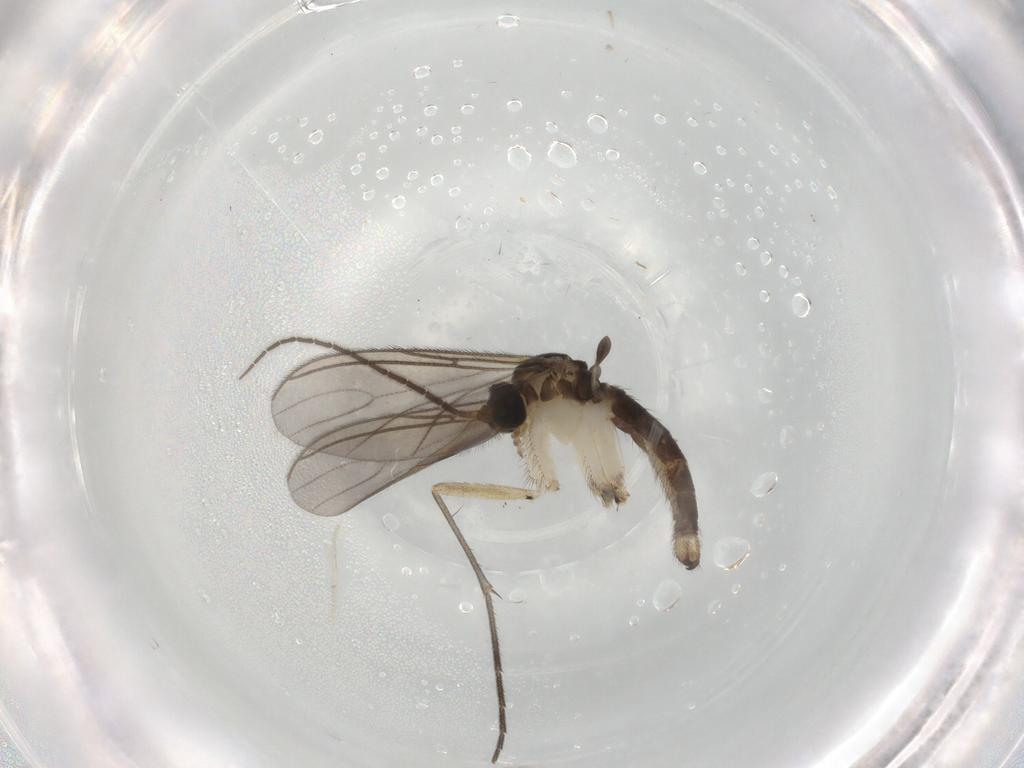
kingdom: Animalia
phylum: Arthropoda
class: Insecta
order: Diptera
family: Sciaridae
